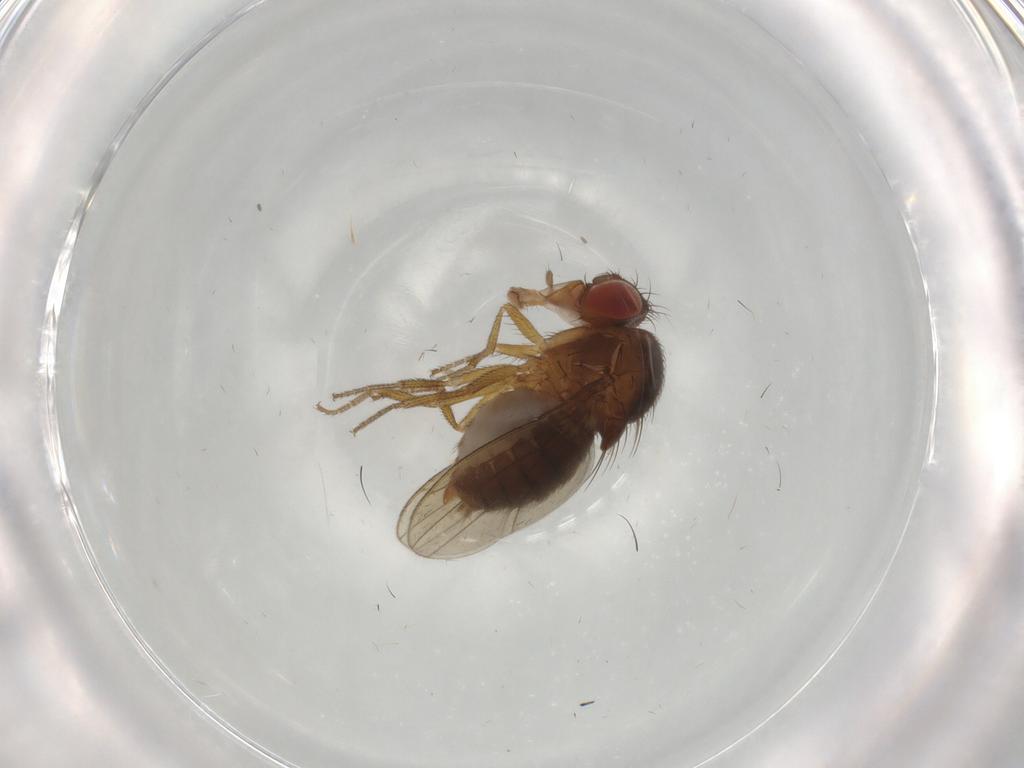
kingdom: Animalia
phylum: Arthropoda
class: Insecta
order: Diptera
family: Drosophilidae
